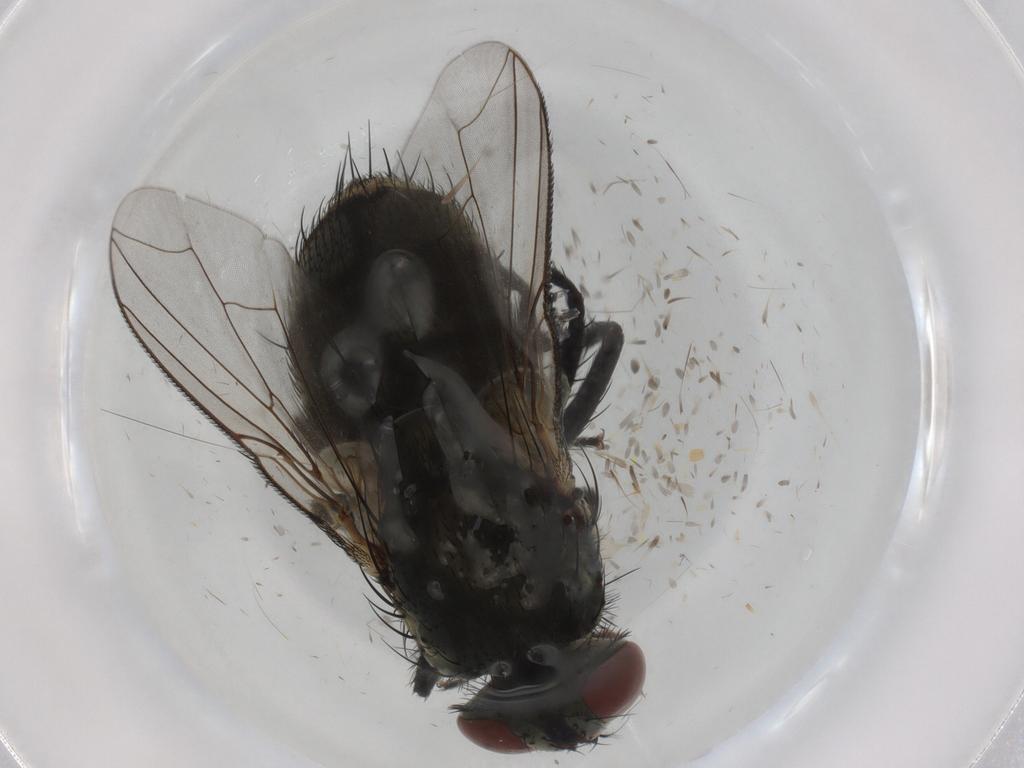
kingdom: Animalia
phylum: Arthropoda
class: Insecta
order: Diptera
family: Sarcophagidae
